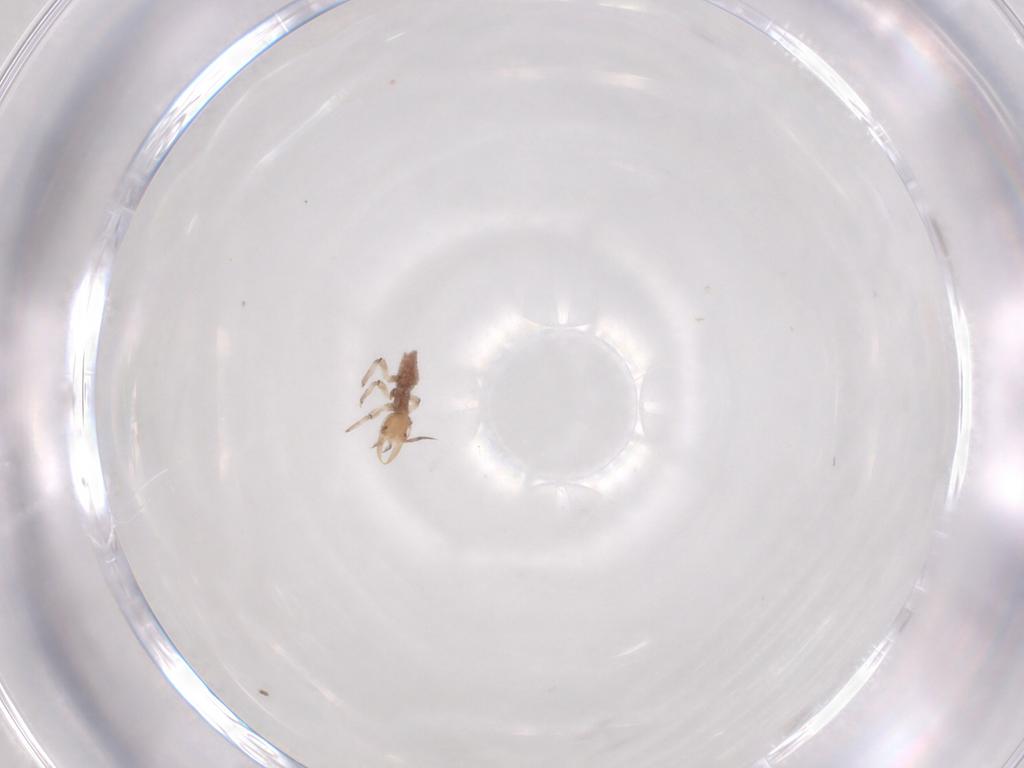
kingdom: Animalia
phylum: Arthropoda
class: Insecta
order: Neuroptera
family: Hemerobiidae
